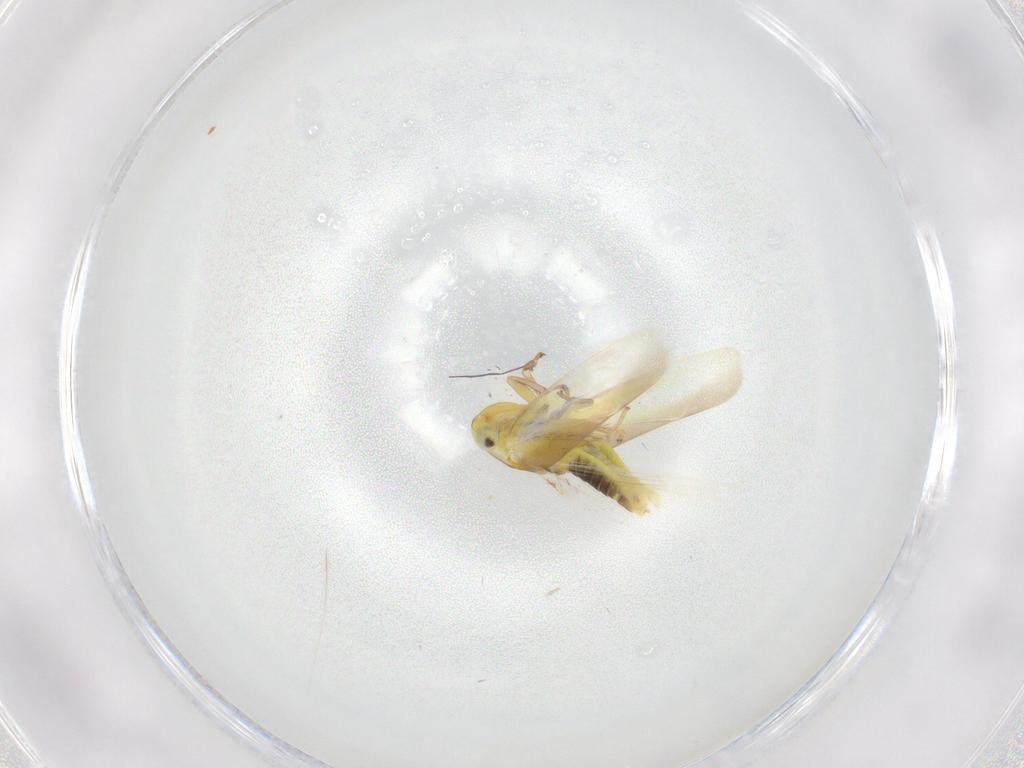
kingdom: Animalia
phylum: Arthropoda
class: Insecta
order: Hemiptera
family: Cicadellidae
